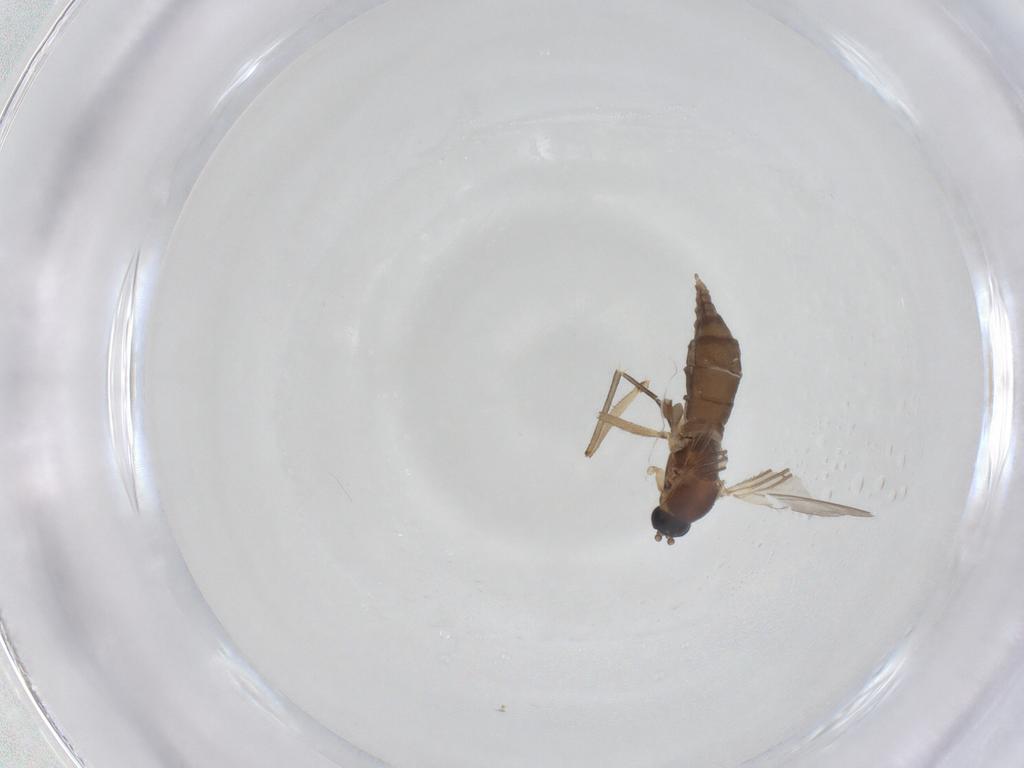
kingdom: Animalia
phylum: Arthropoda
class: Insecta
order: Diptera
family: Sciaridae
